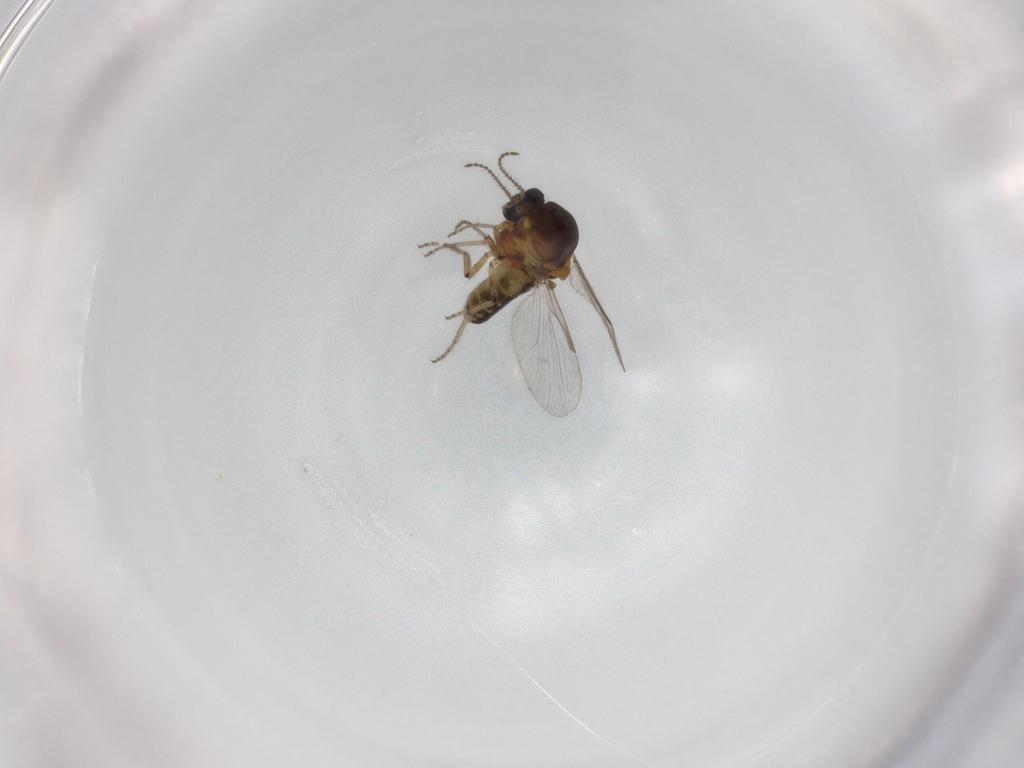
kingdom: Animalia
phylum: Arthropoda
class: Insecta
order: Diptera
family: Ceratopogonidae
